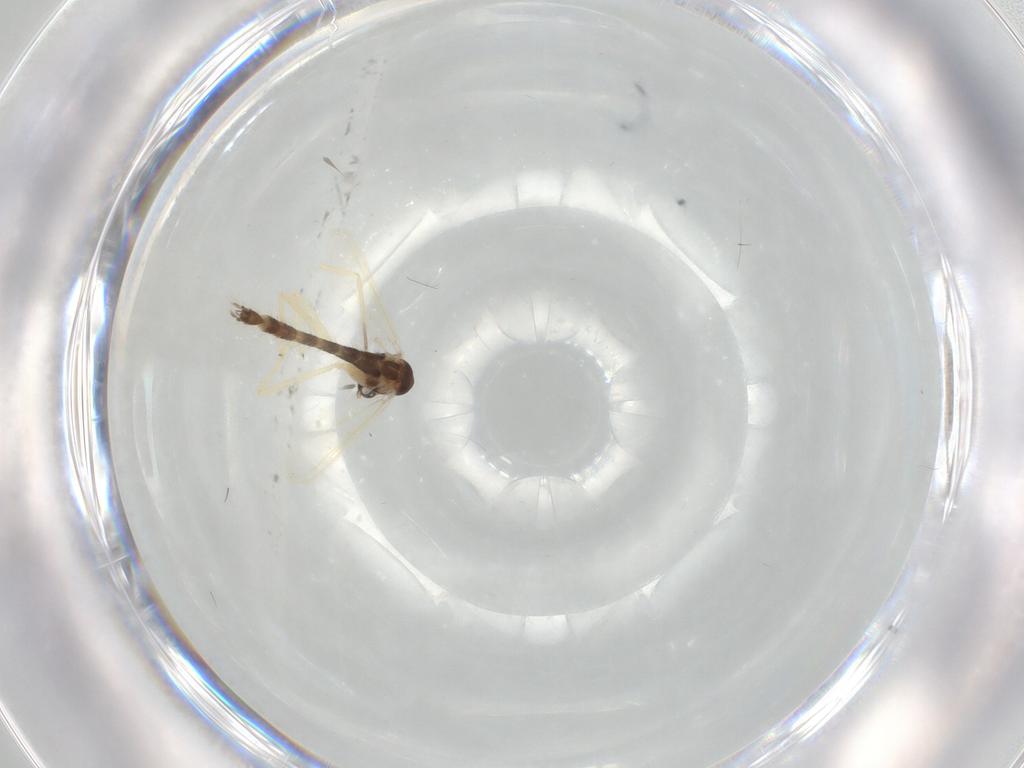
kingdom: Animalia
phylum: Arthropoda
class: Insecta
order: Diptera
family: Chironomidae
